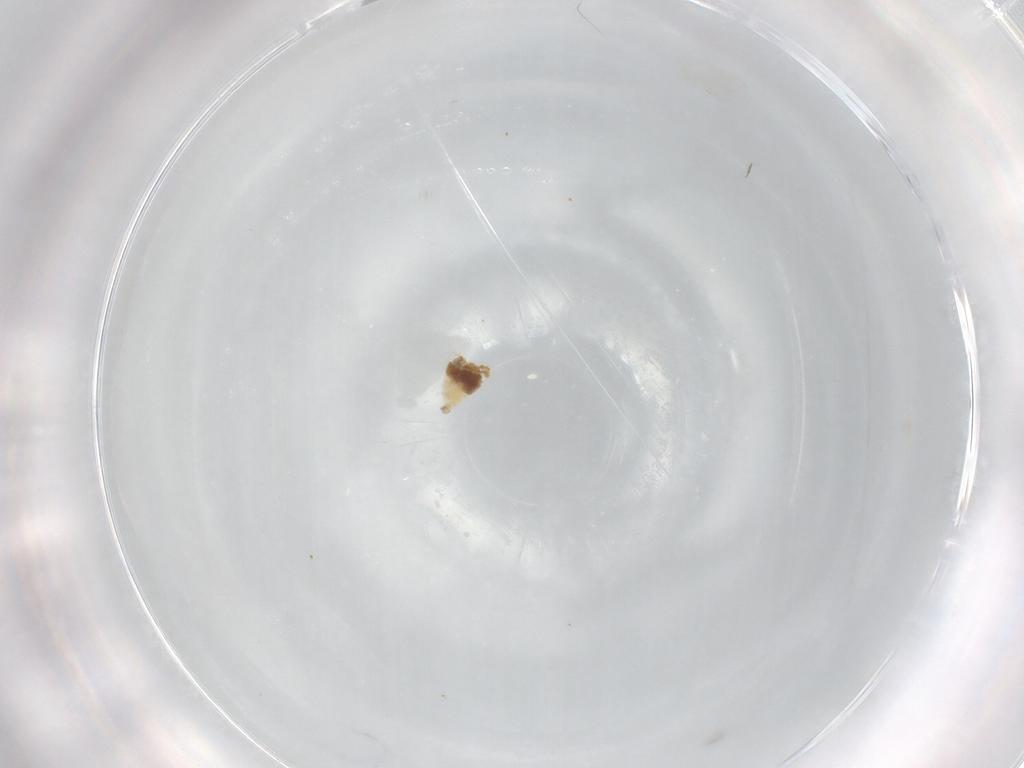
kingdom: Animalia
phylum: Arthropoda
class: Insecta
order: Diptera
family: Cecidomyiidae
